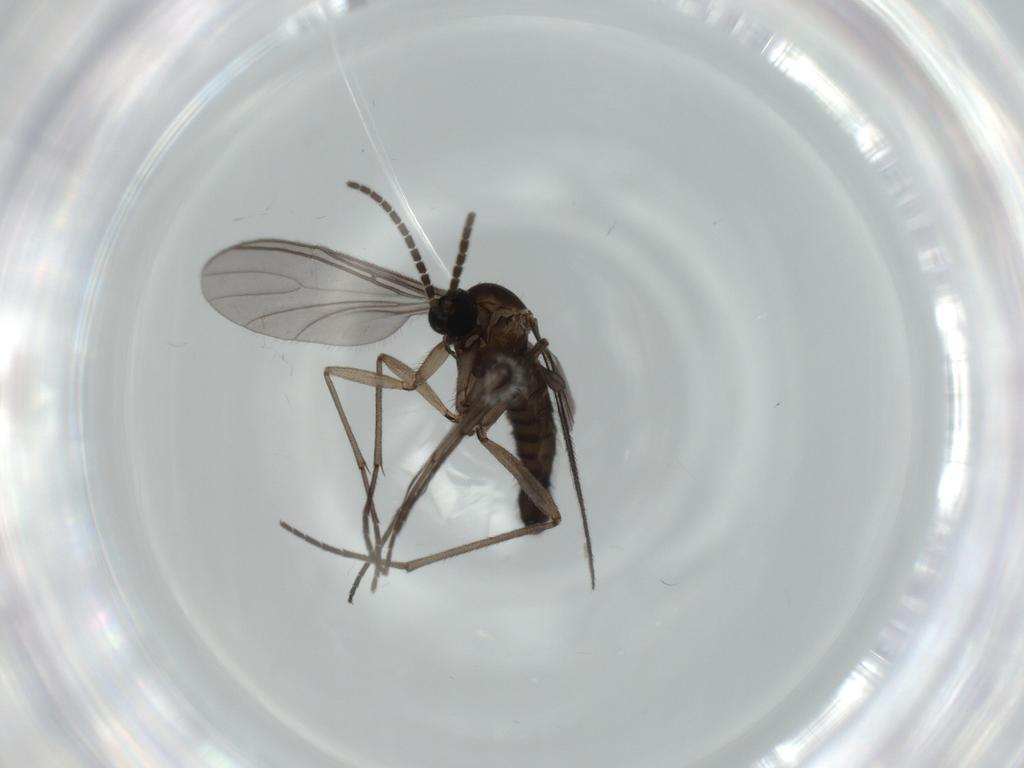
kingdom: Animalia
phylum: Arthropoda
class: Insecta
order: Diptera
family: Sciaridae
